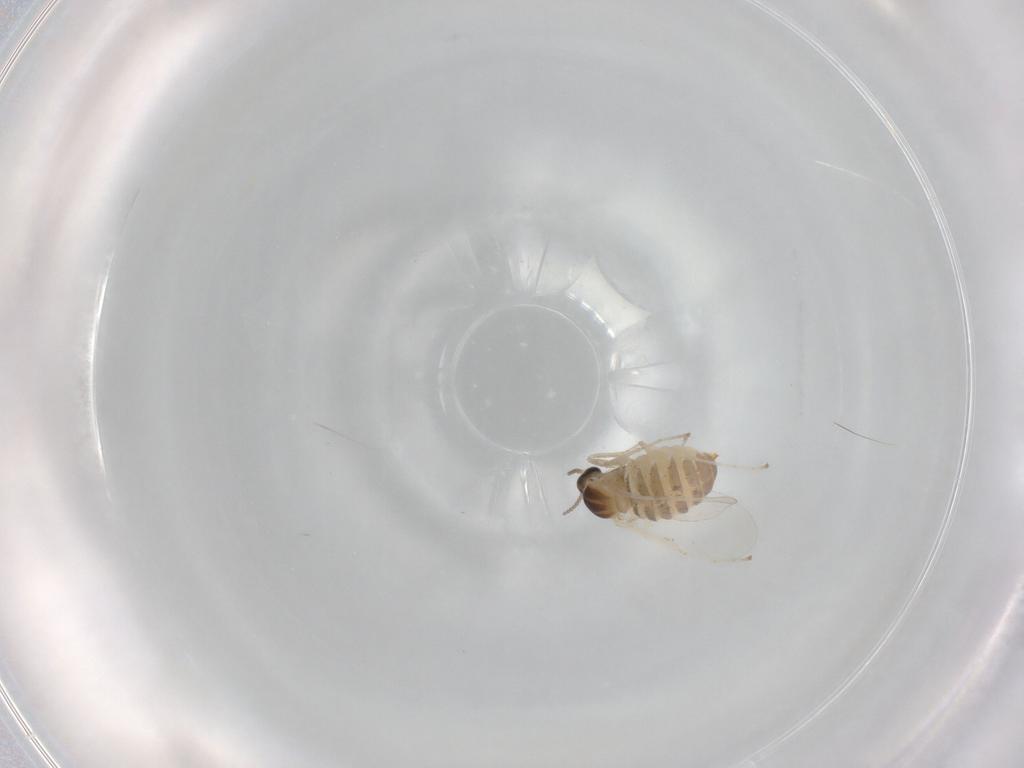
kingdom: Animalia
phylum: Arthropoda
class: Insecta
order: Diptera
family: Cecidomyiidae
